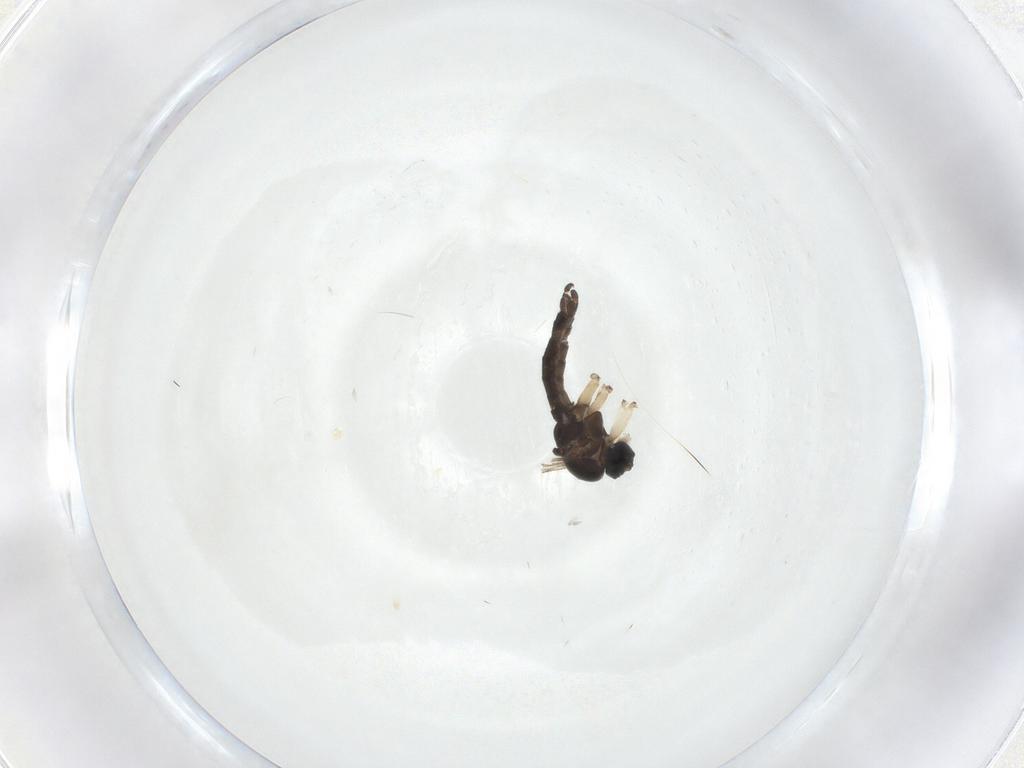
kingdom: Animalia
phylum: Arthropoda
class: Insecta
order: Diptera
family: Sciaridae
